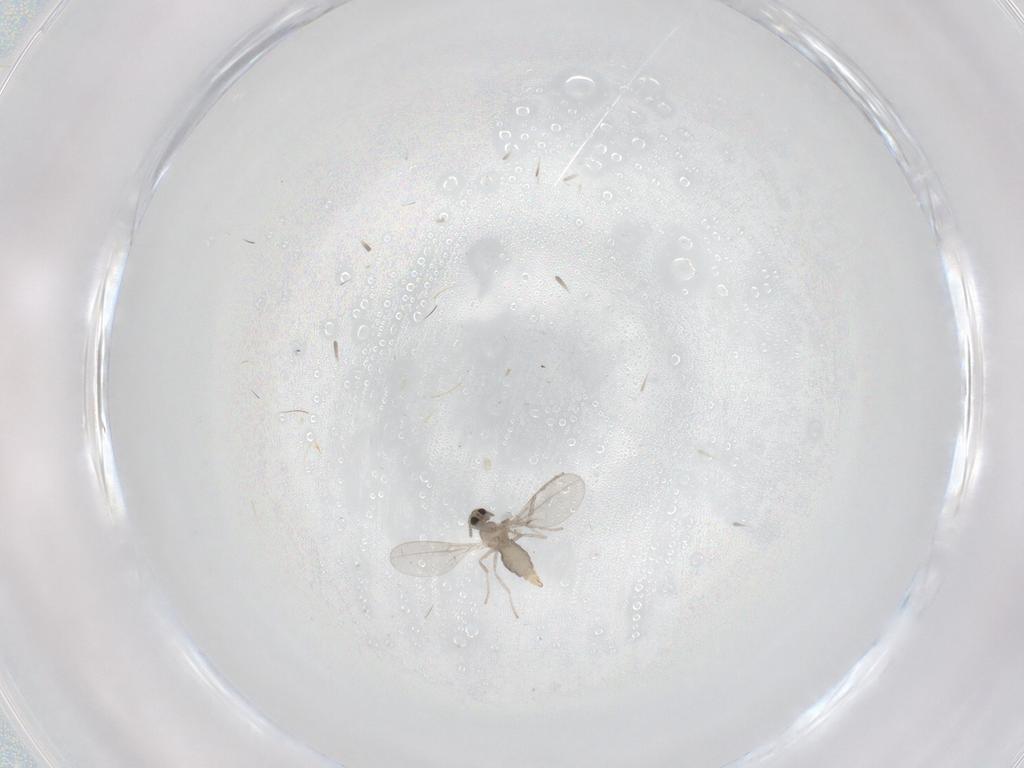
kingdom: Animalia
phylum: Arthropoda
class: Insecta
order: Diptera
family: Cecidomyiidae
